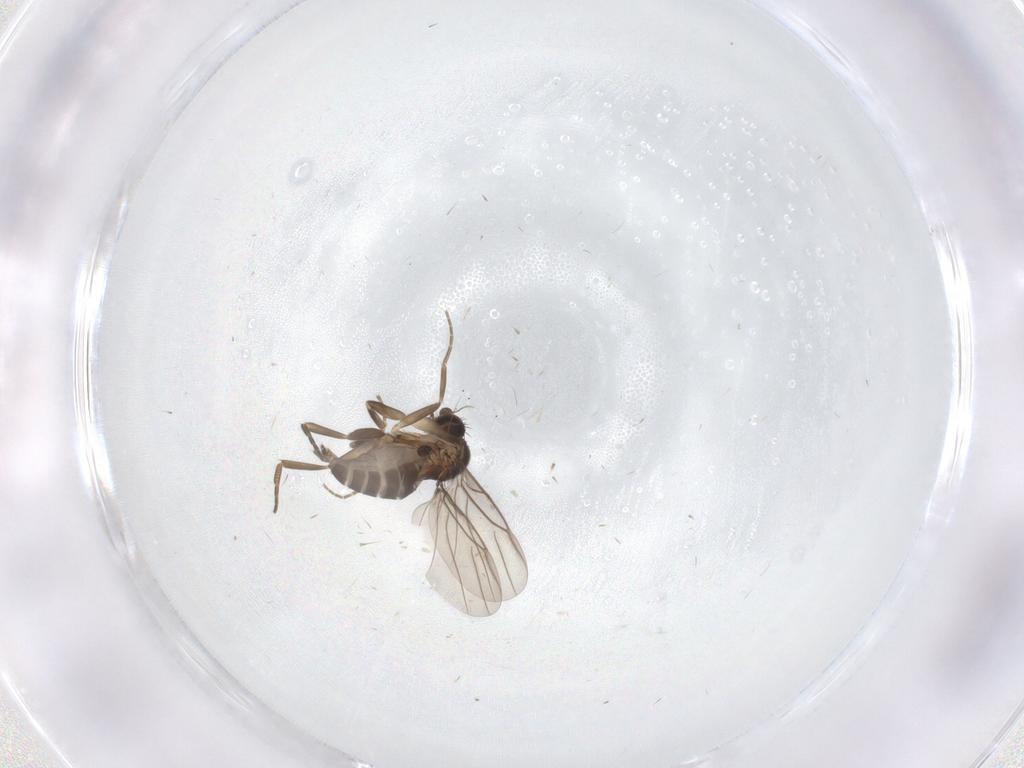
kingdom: Animalia
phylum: Arthropoda
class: Insecta
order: Diptera
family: Phoridae
